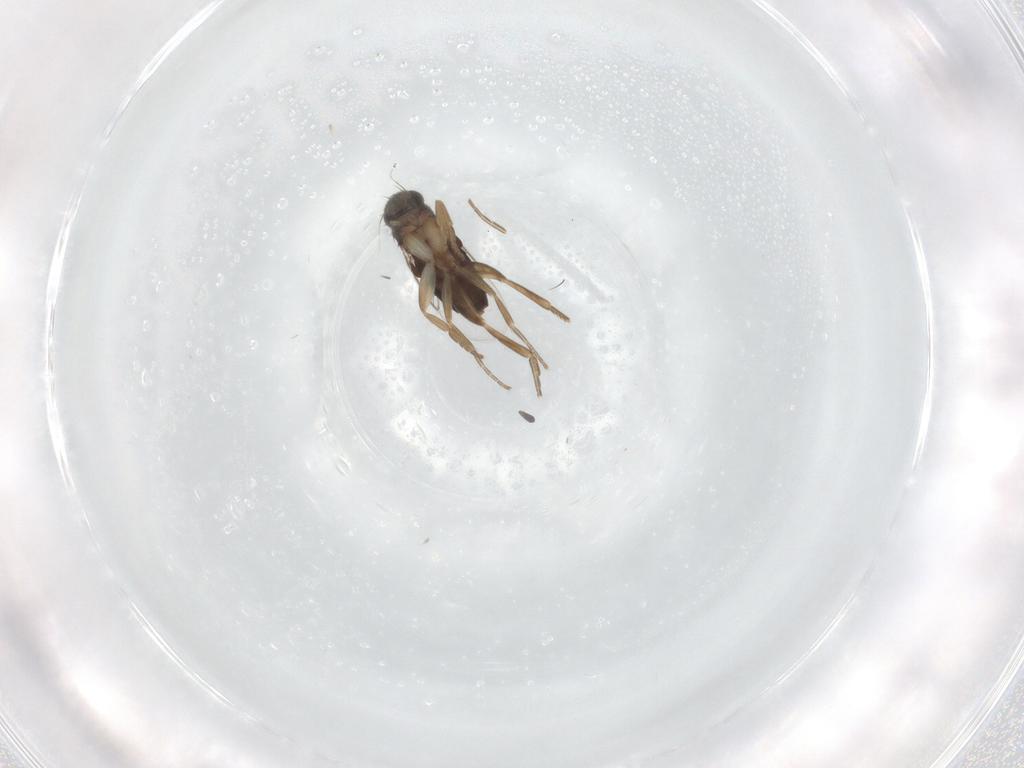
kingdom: Animalia
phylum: Arthropoda
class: Insecta
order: Diptera
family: Phoridae
